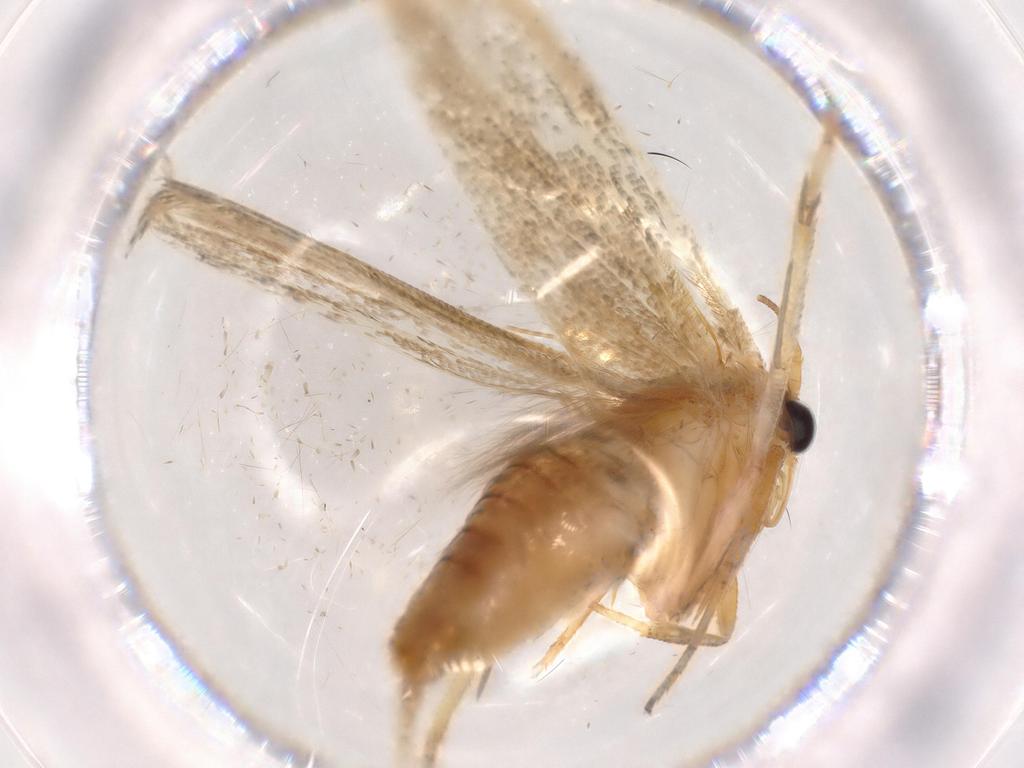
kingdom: Animalia
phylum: Arthropoda
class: Insecta
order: Lepidoptera
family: Blastobasidae
